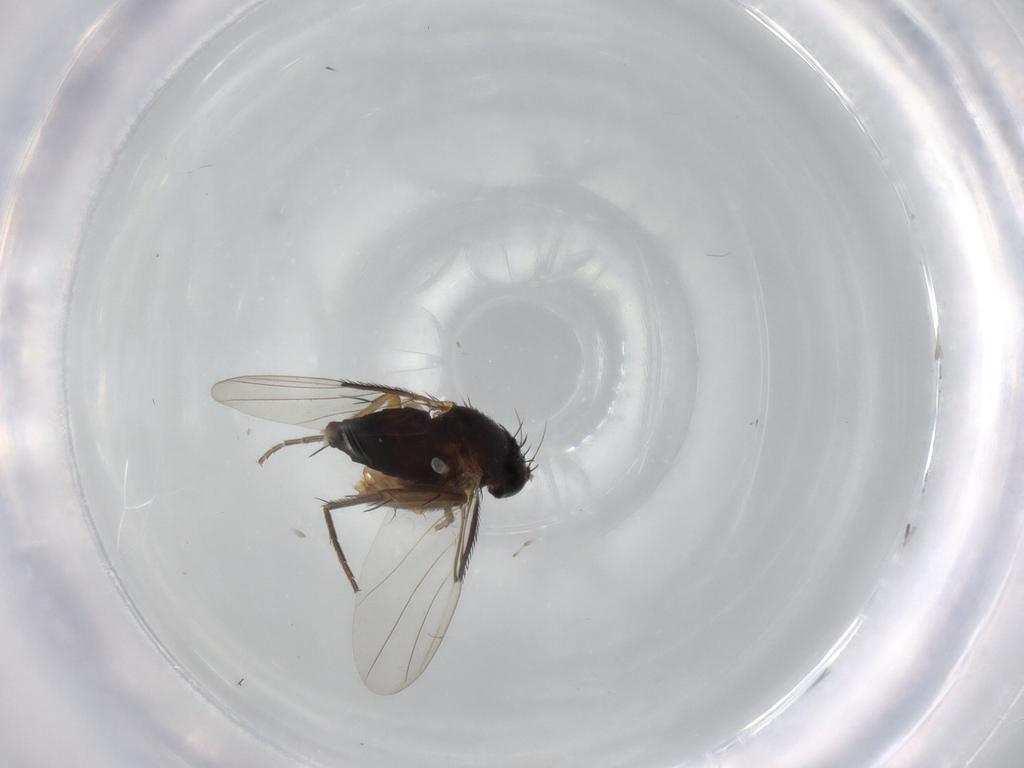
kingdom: Animalia
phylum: Arthropoda
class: Insecta
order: Diptera
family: Phoridae
